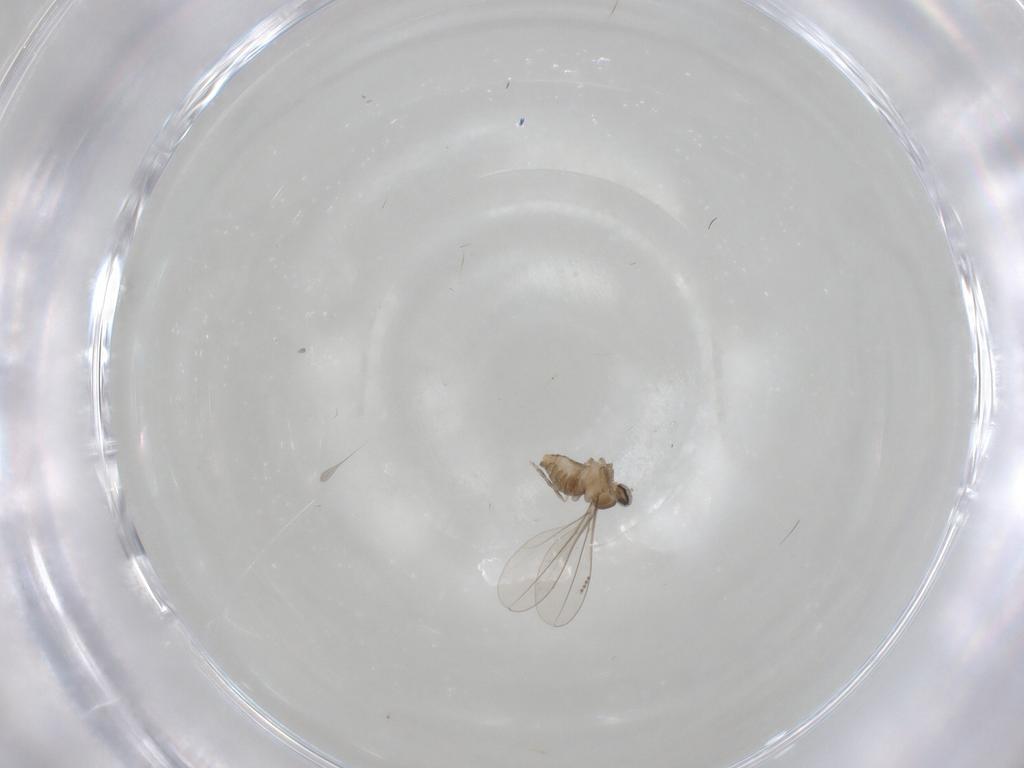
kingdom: Animalia
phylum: Arthropoda
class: Insecta
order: Diptera
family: Cecidomyiidae
